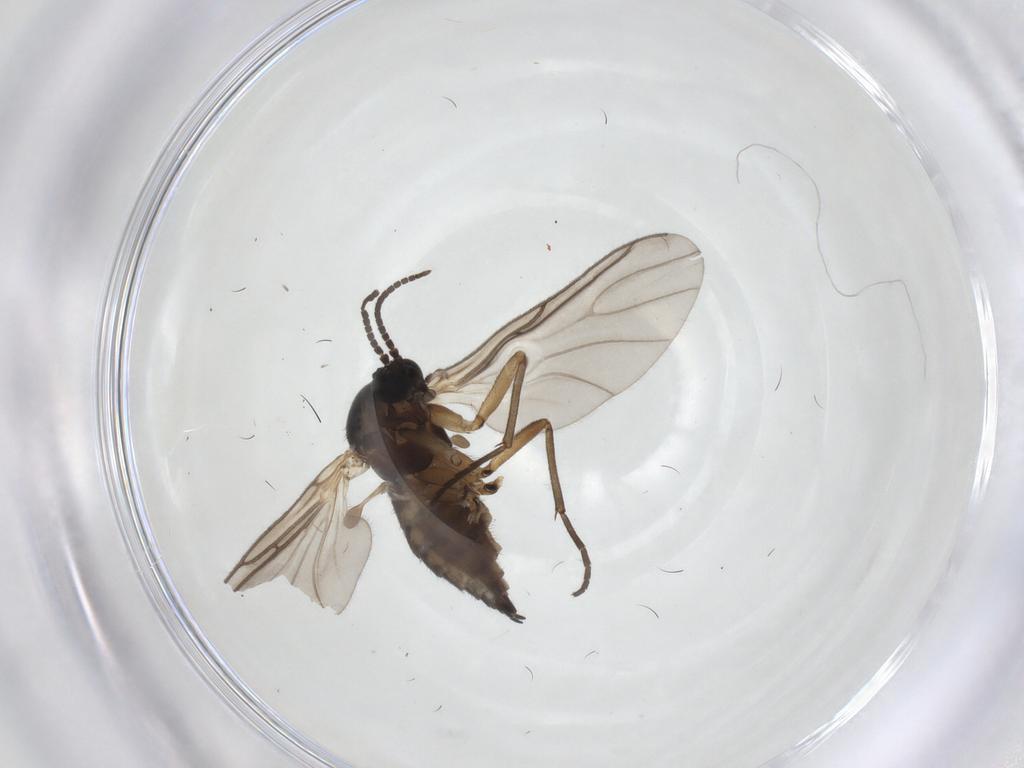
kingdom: Animalia
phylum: Arthropoda
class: Insecta
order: Diptera
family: Sciaridae
